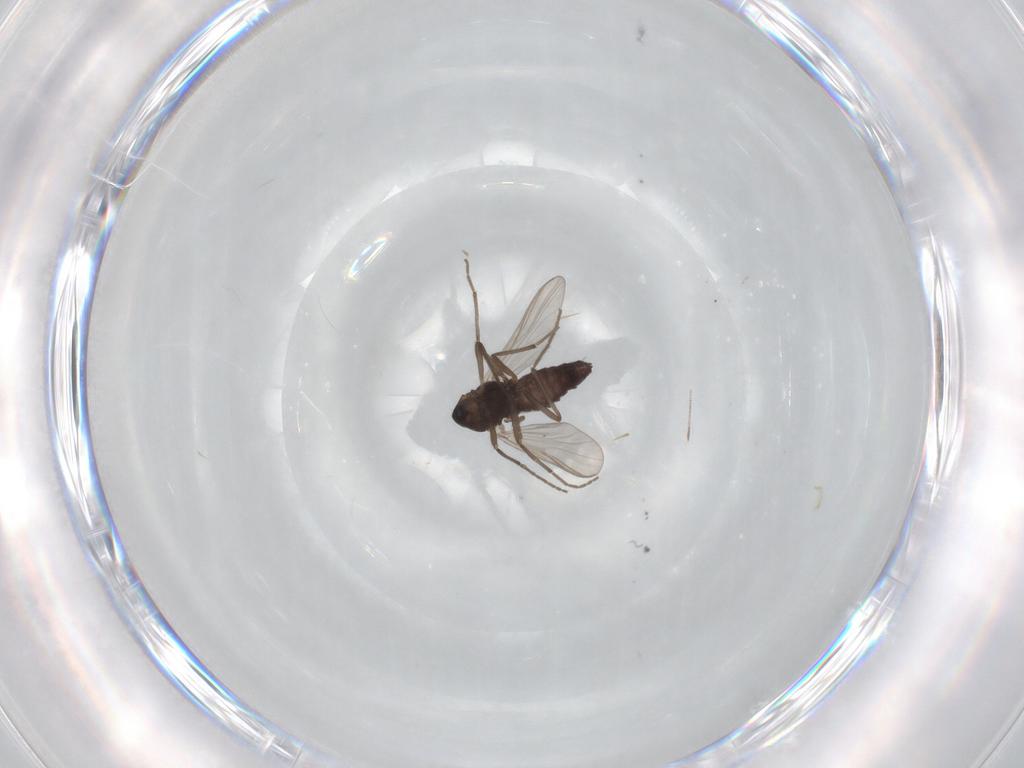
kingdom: Animalia
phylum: Arthropoda
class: Insecta
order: Diptera
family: Chironomidae
